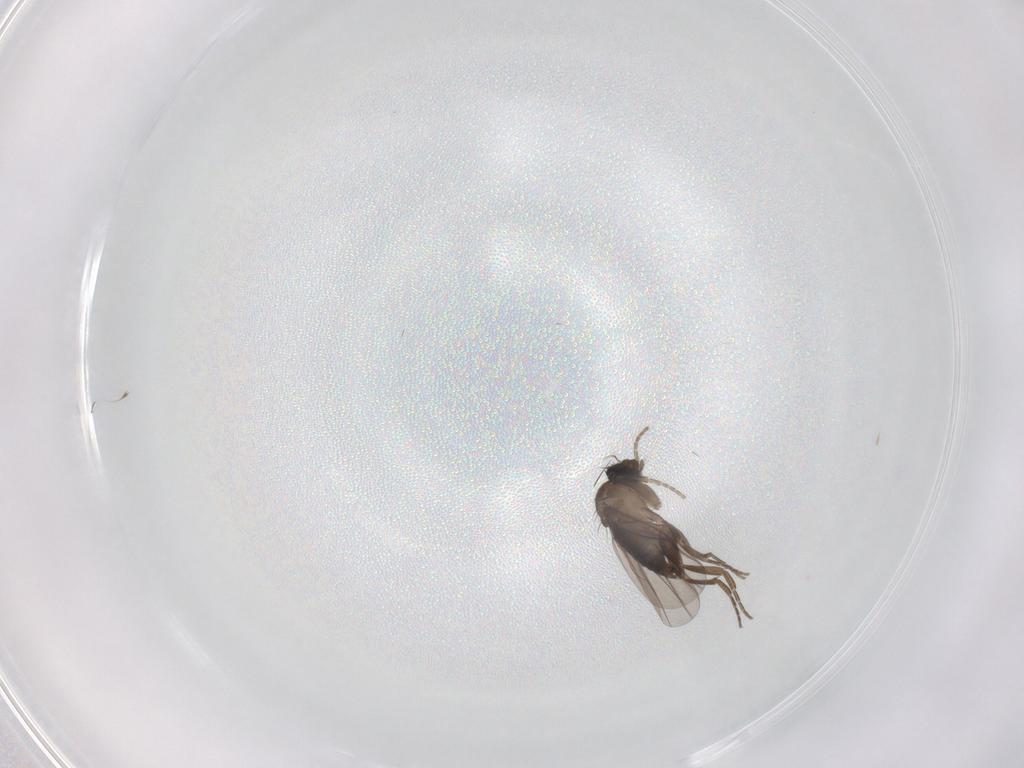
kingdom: Animalia
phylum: Arthropoda
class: Insecta
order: Diptera
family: Phoridae
